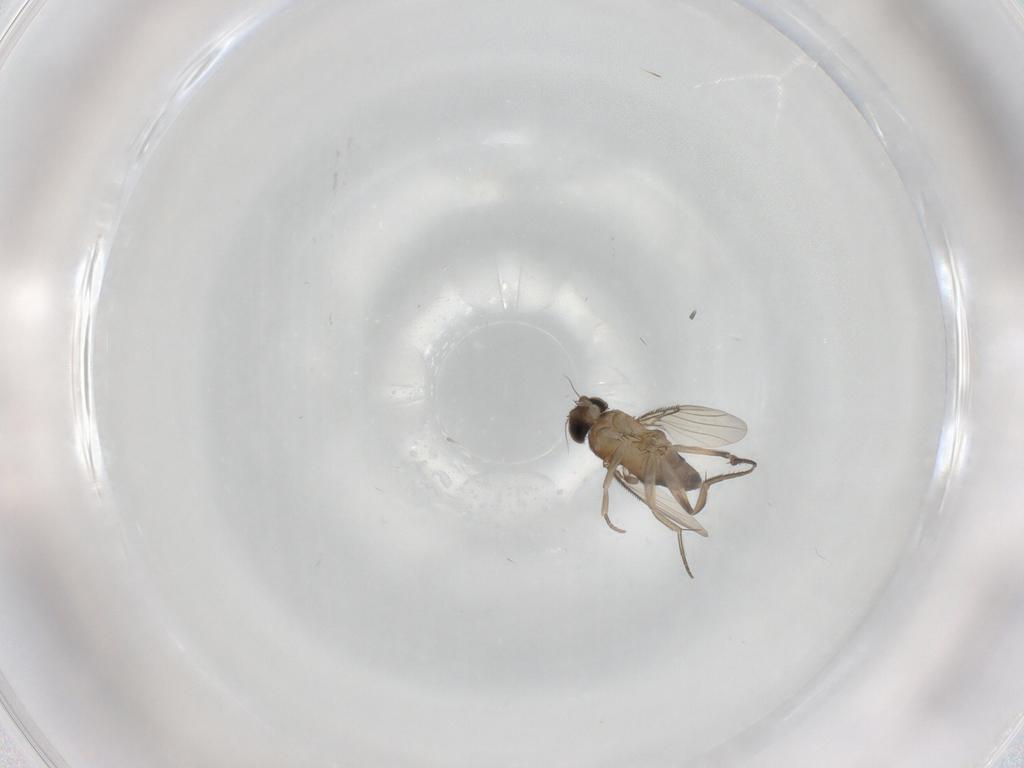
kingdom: Animalia
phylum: Arthropoda
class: Insecta
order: Diptera
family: Phoridae
